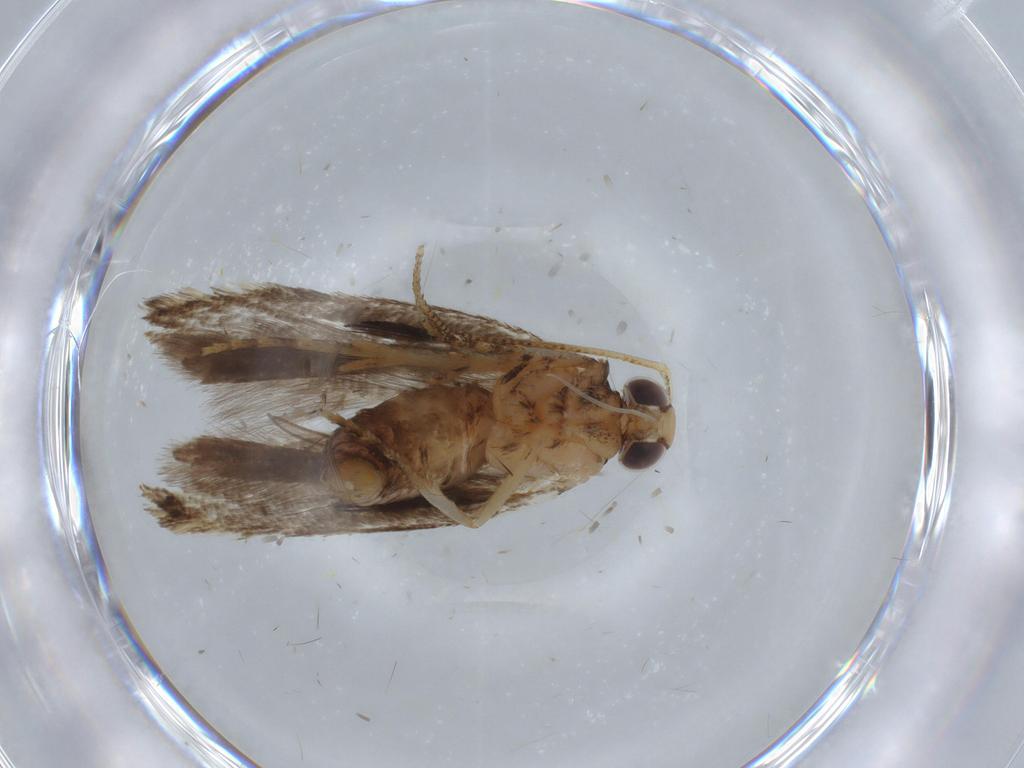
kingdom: Animalia
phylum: Arthropoda
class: Insecta
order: Lepidoptera
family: Gelechiidae
